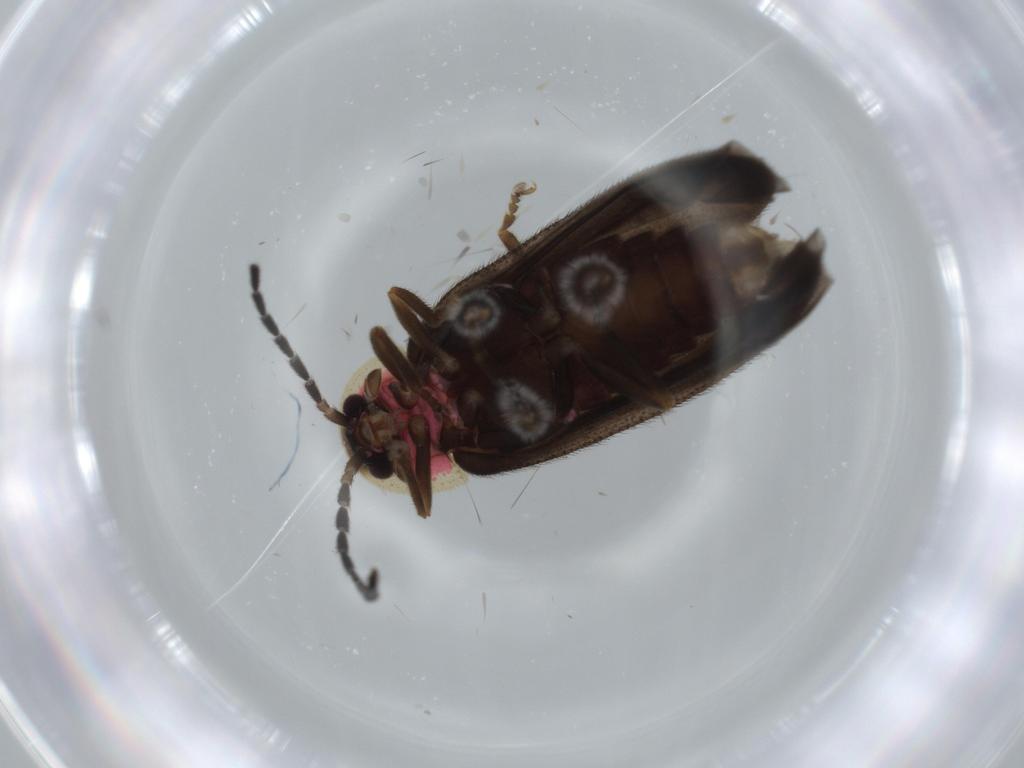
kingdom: Animalia
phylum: Arthropoda
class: Insecta
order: Coleoptera
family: Lampyridae
